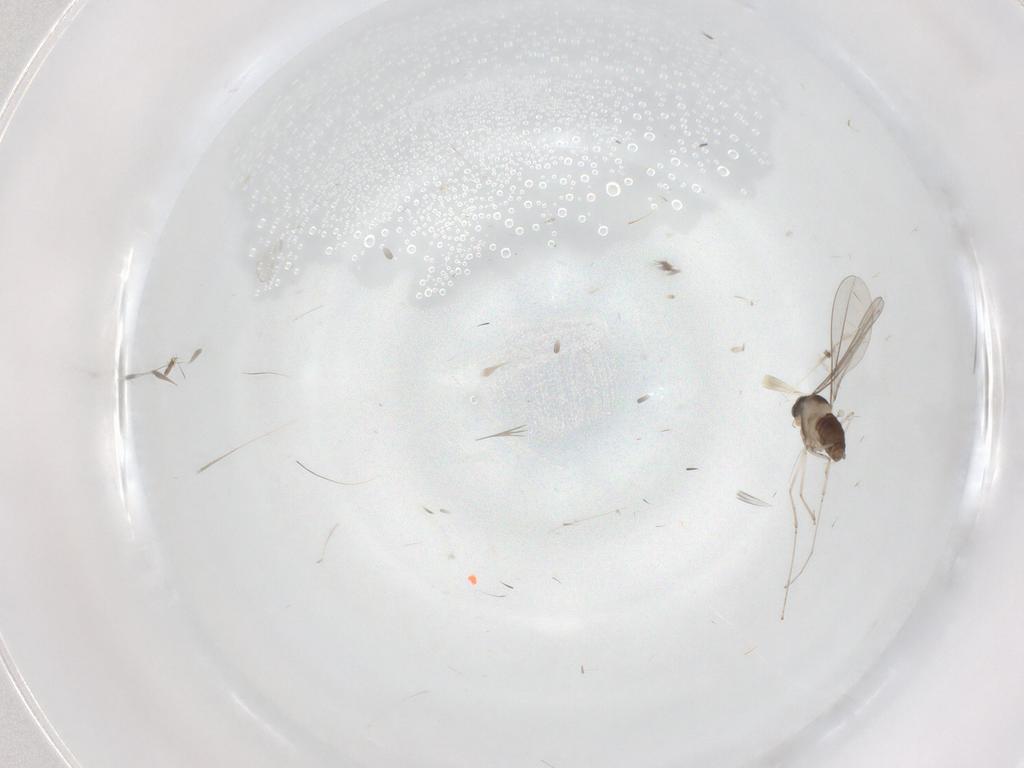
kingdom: Animalia
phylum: Arthropoda
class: Insecta
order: Diptera
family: Cecidomyiidae
